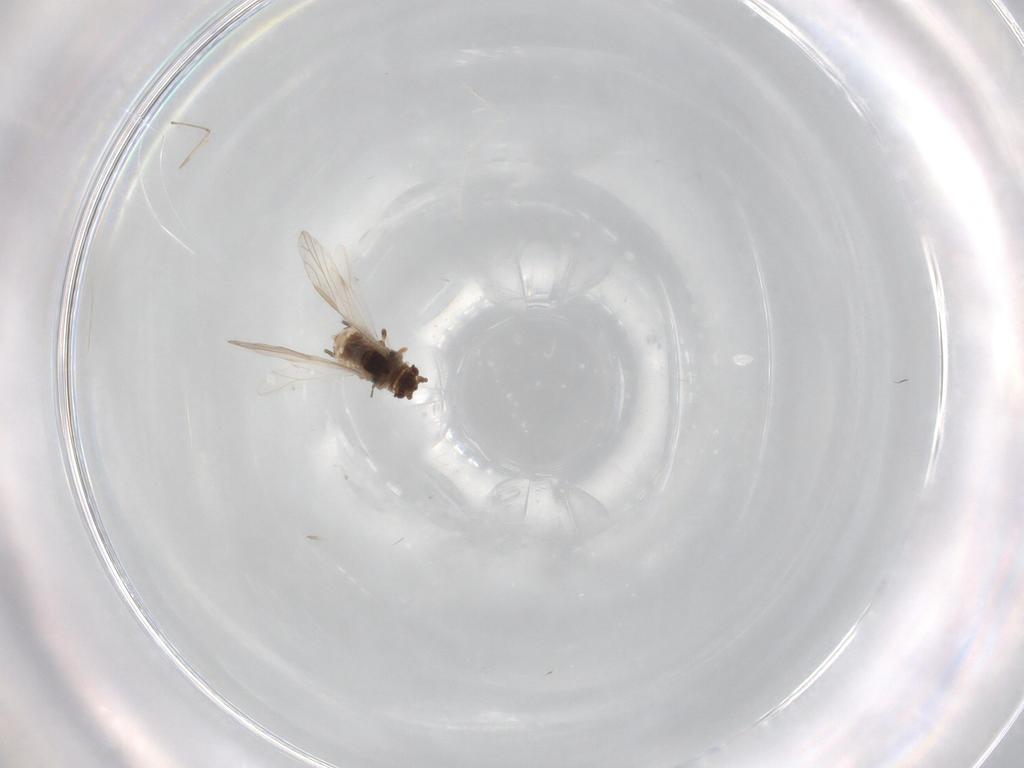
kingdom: Animalia
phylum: Arthropoda
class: Insecta
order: Hemiptera
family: Aphididae
